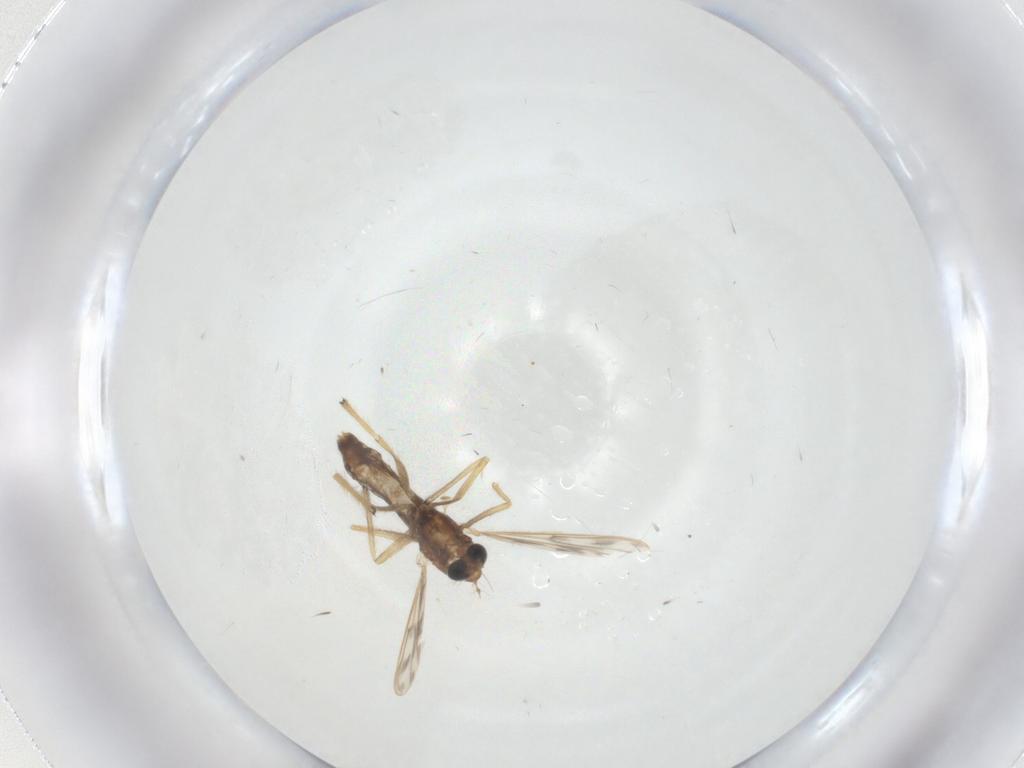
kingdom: Animalia
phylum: Arthropoda
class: Insecta
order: Diptera
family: Chironomidae
